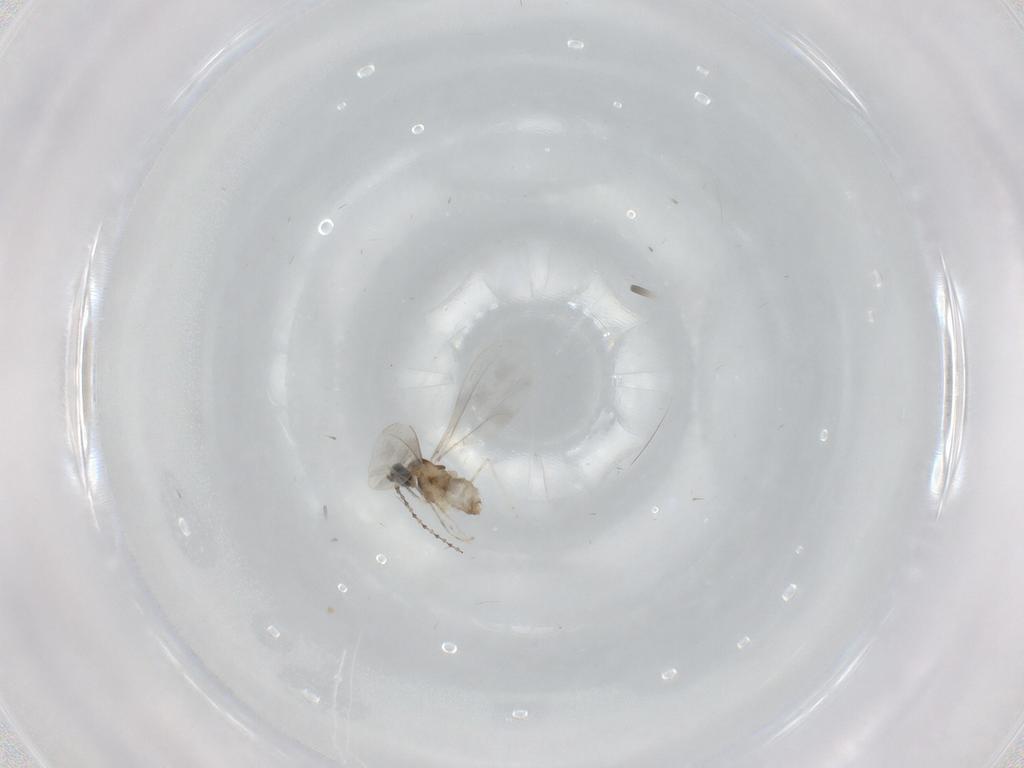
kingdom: Animalia
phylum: Arthropoda
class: Insecta
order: Diptera
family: Cecidomyiidae
